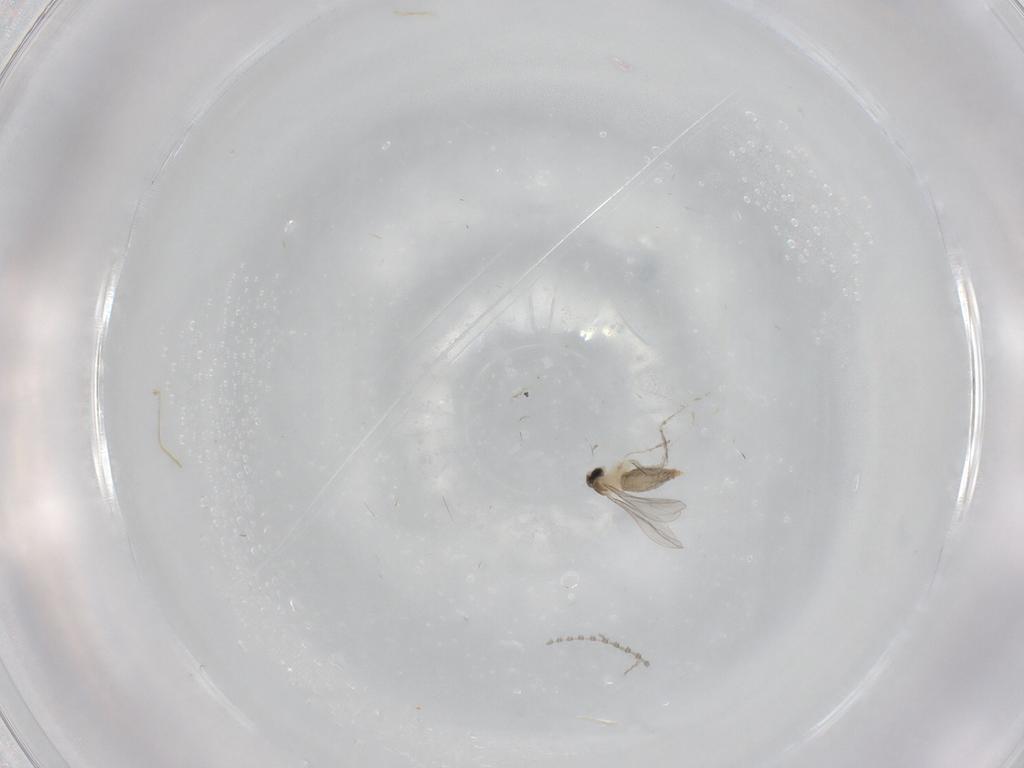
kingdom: Animalia
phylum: Arthropoda
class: Insecta
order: Diptera
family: Cecidomyiidae
